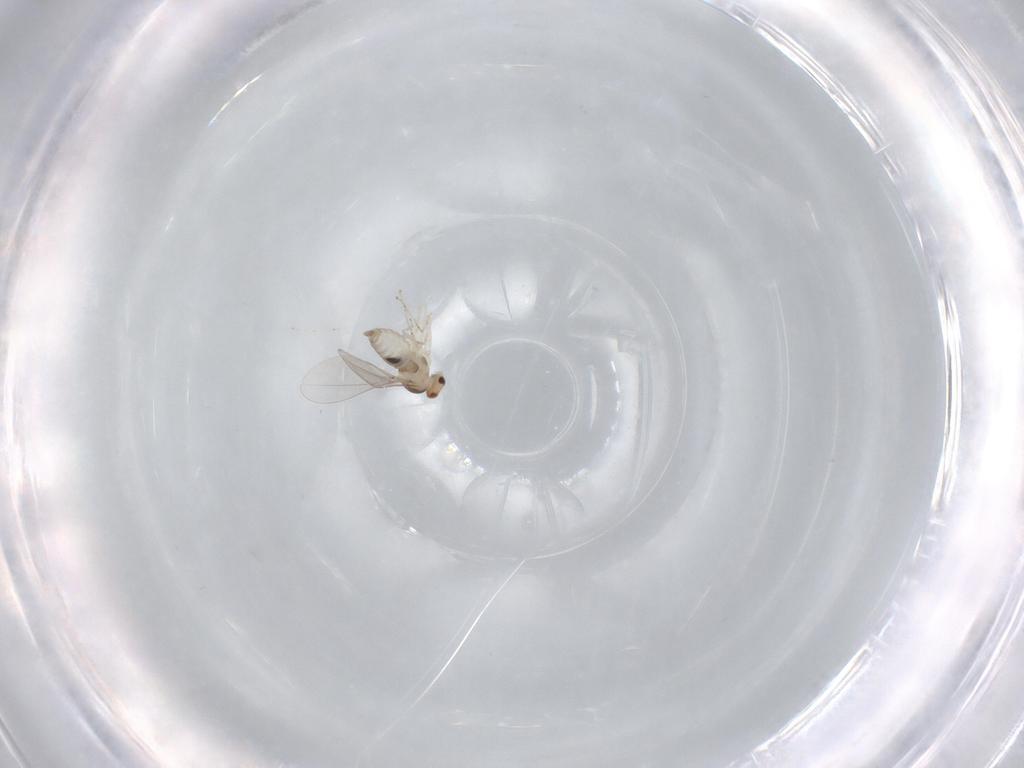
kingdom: Animalia
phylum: Arthropoda
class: Insecta
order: Diptera
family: Cecidomyiidae
